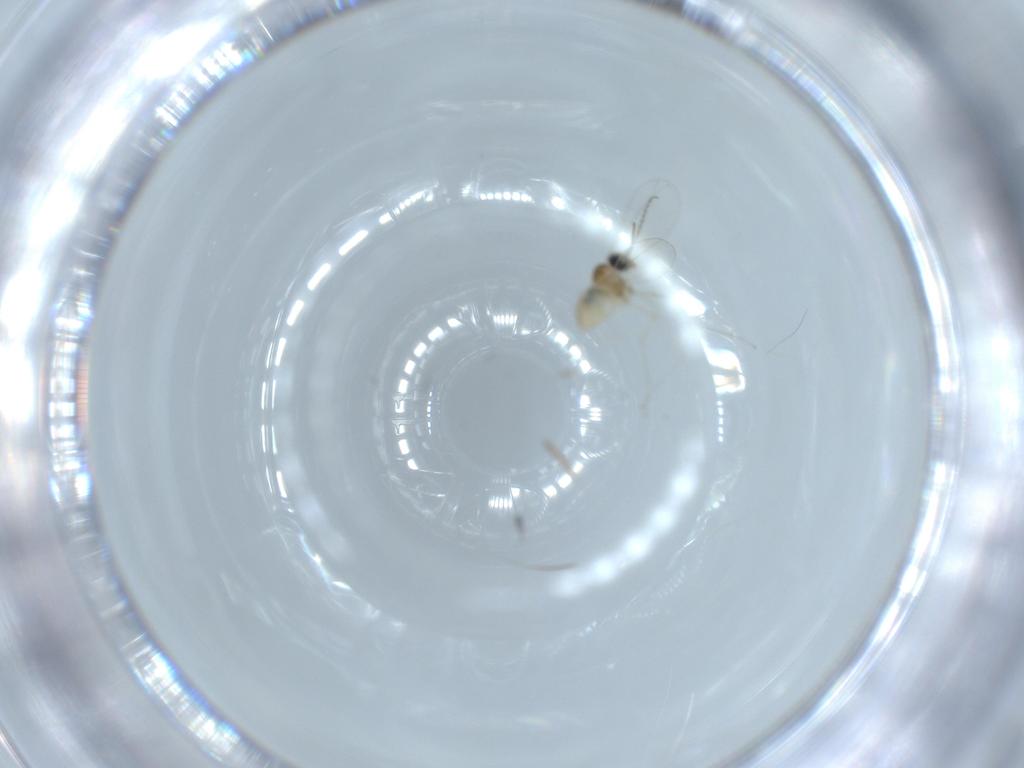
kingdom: Animalia
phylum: Arthropoda
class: Insecta
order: Diptera
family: Cecidomyiidae
